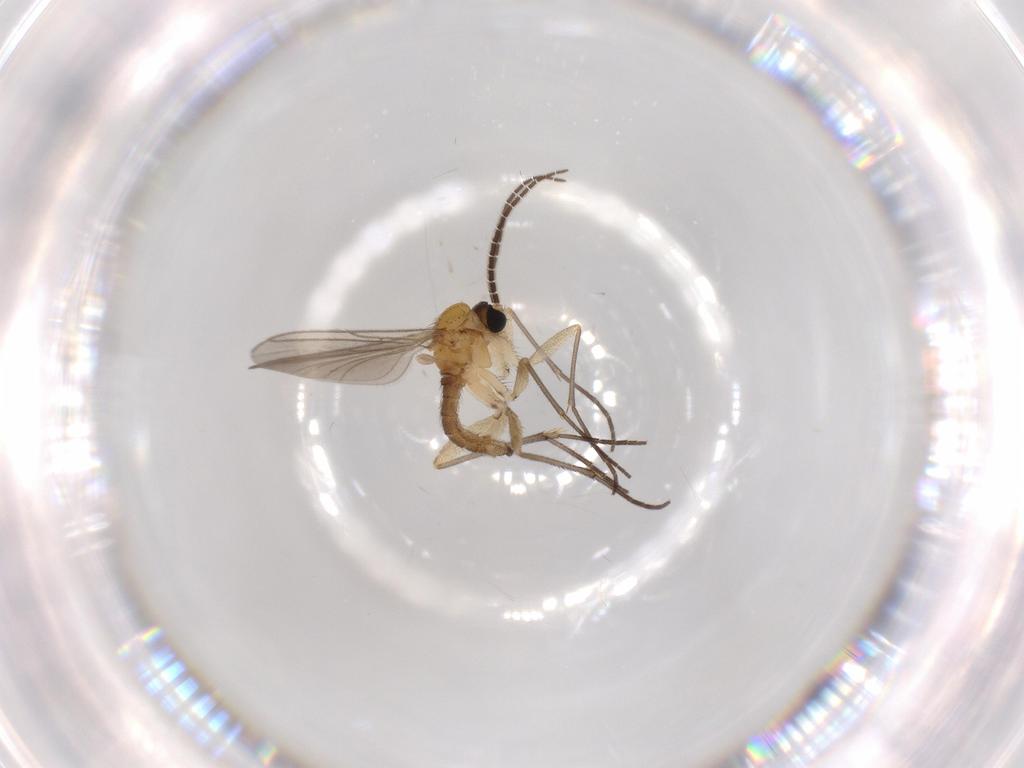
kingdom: Animalia
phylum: Arthropoda
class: Insecta
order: Diptera
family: Sciaridae
